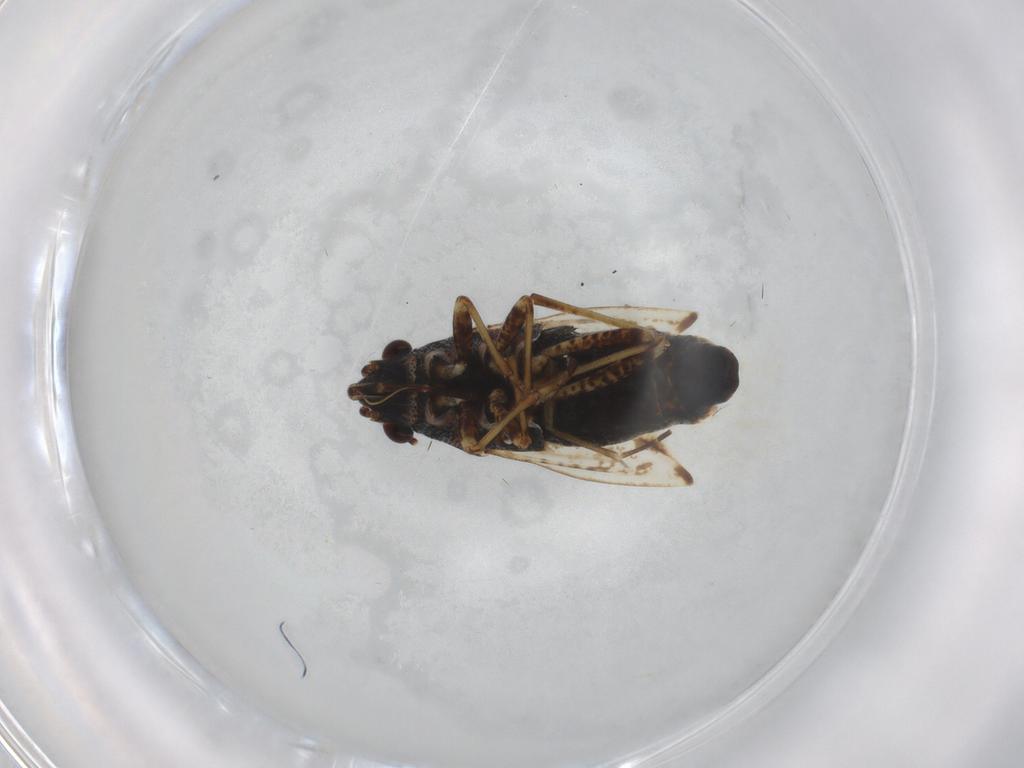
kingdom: Animalia
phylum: Arthropoda
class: Insecta
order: Hemiptera
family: Lygaeidae
